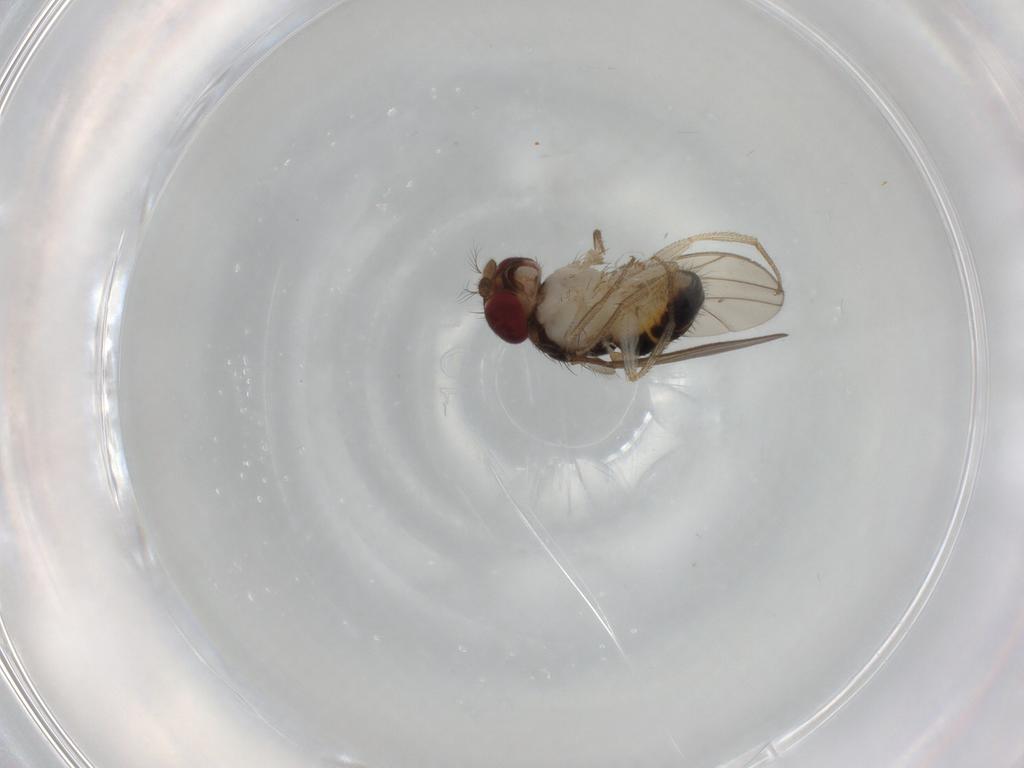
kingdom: Animalia
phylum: Arthropoda
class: Insecta
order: Diptera
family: Drosophilidae
